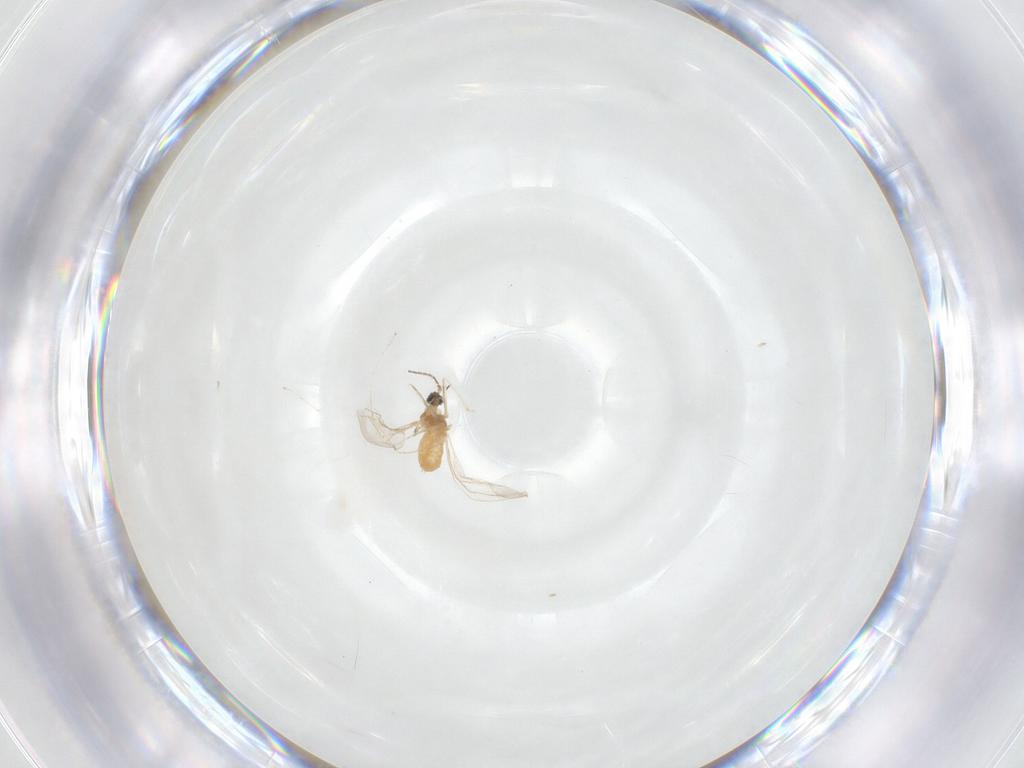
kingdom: Animalia
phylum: Arthropoda
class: Insecta
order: Diptera
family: Cecidomyiidae
